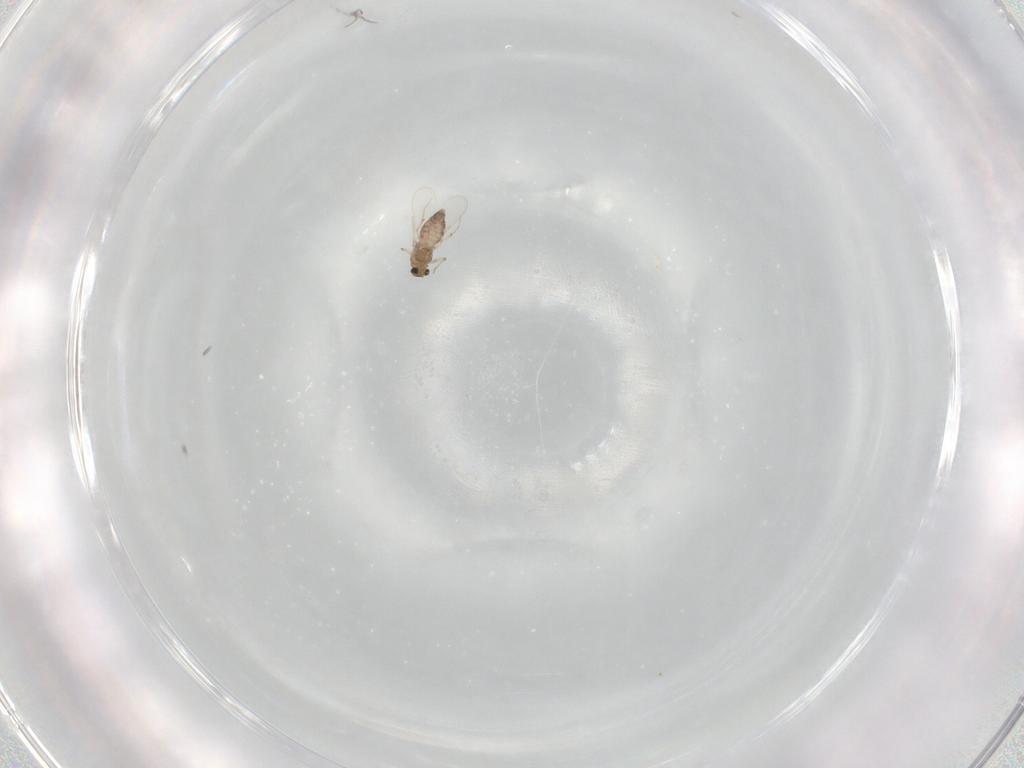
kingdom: Animalia
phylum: Arthropoda
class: Insecta
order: Diptera
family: Chironomidae
